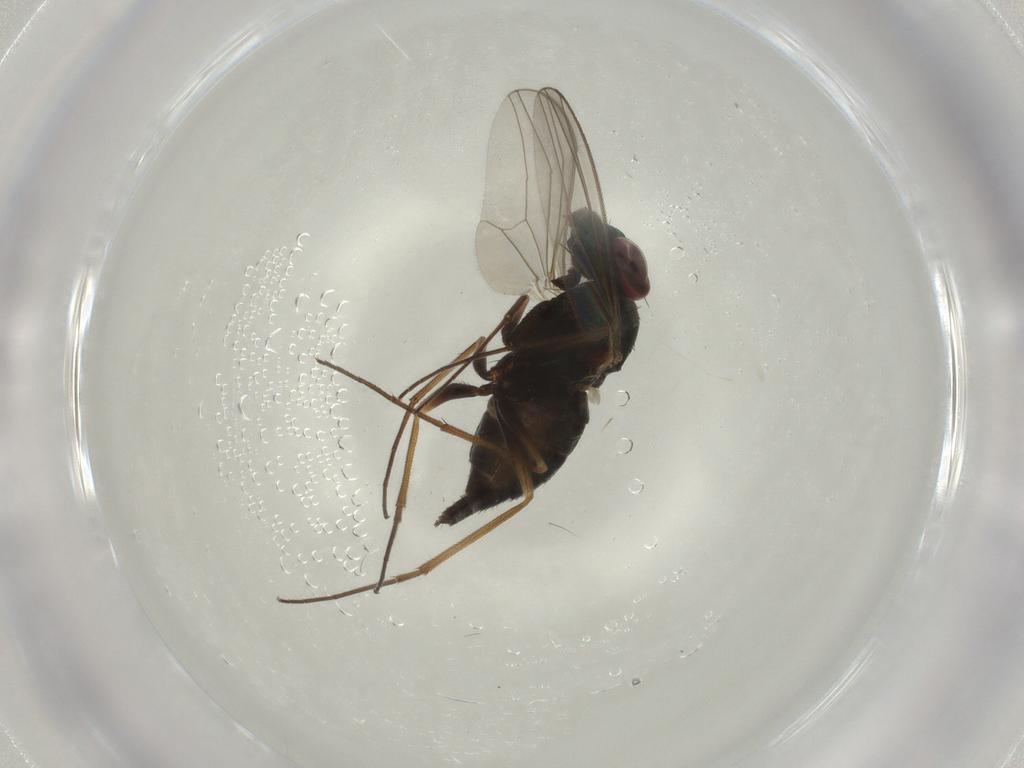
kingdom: Animalia
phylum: Arthropoda
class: Insecta
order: Diptera
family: Dolichopodidae
